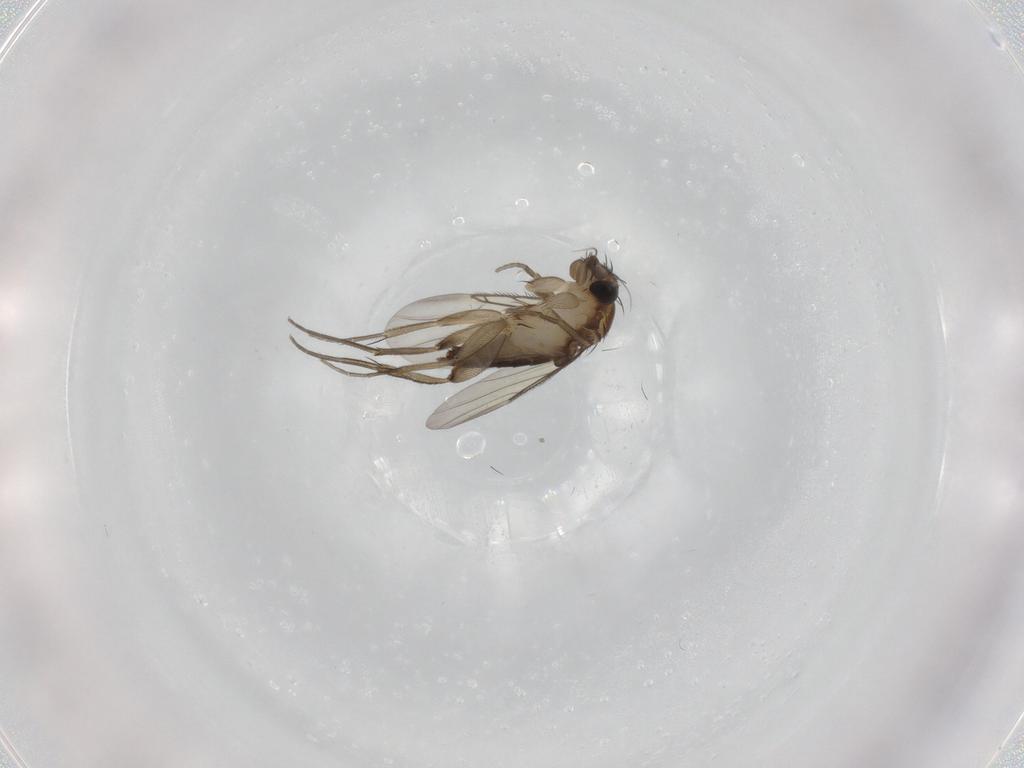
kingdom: Animalia
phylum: Arthropoda
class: Insecta
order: Diptera
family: Phoridae
